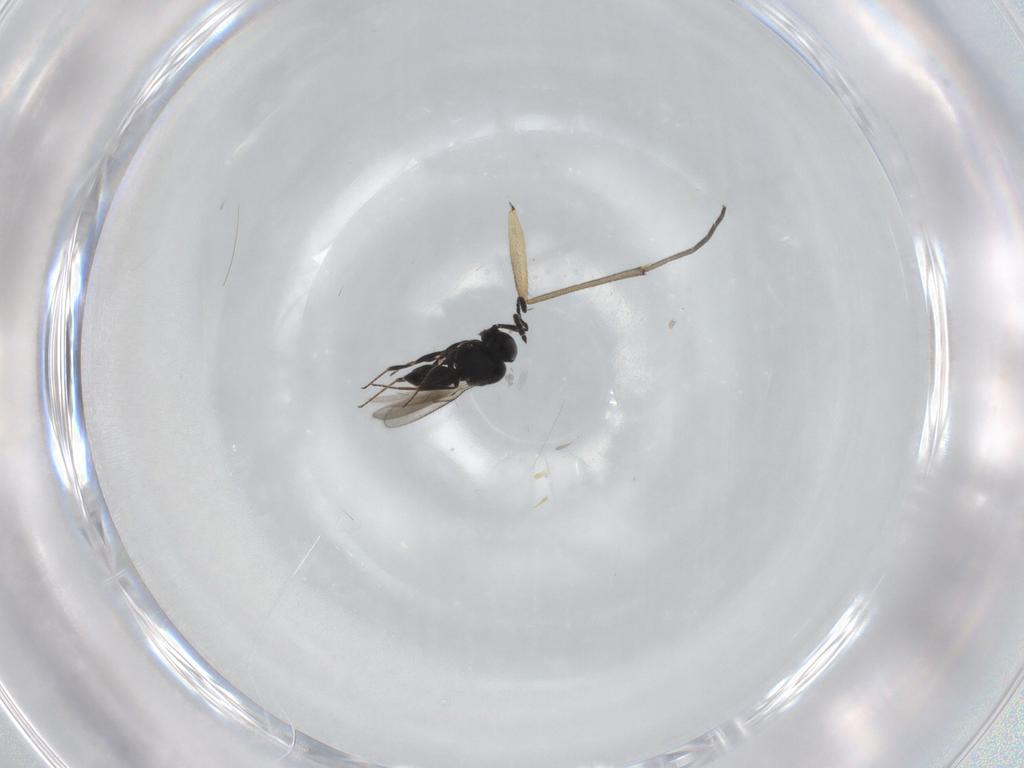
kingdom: Animalia
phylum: Arthropoda
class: Insecta
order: Hymenoptera
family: Scelionidae
